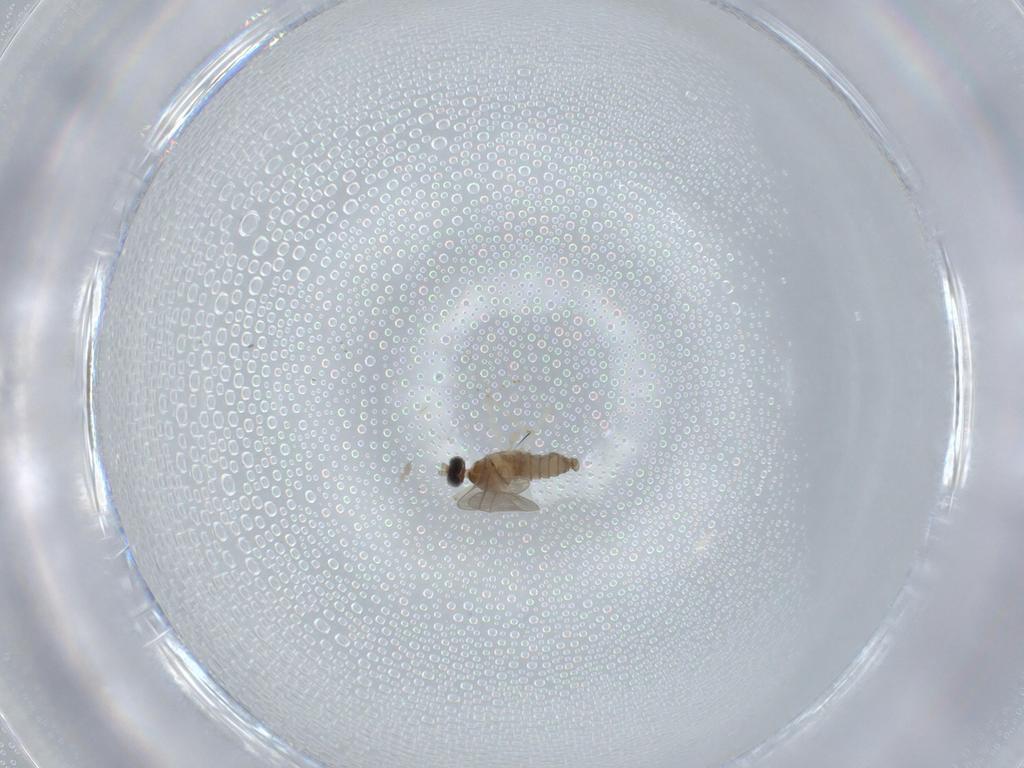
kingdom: Animalia
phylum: Arthropoda
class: Insecta
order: Diptera
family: Cecidomyiidae
